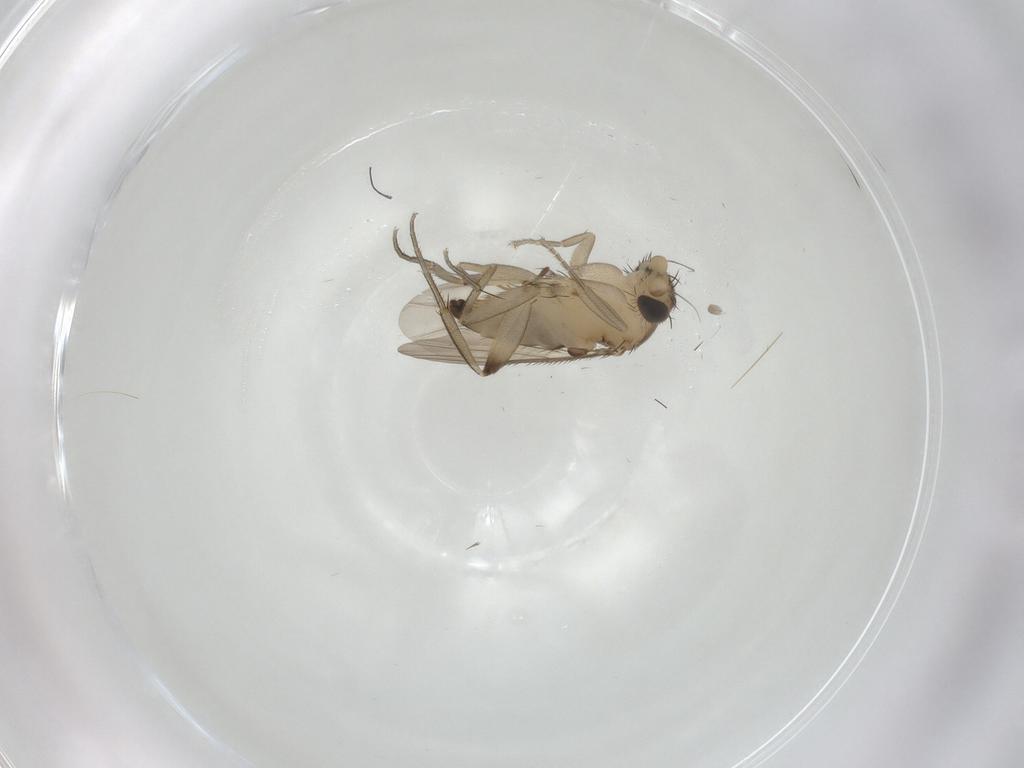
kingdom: Animalia
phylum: Arthropoda
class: Insecta
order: Diptera
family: Phoridae
